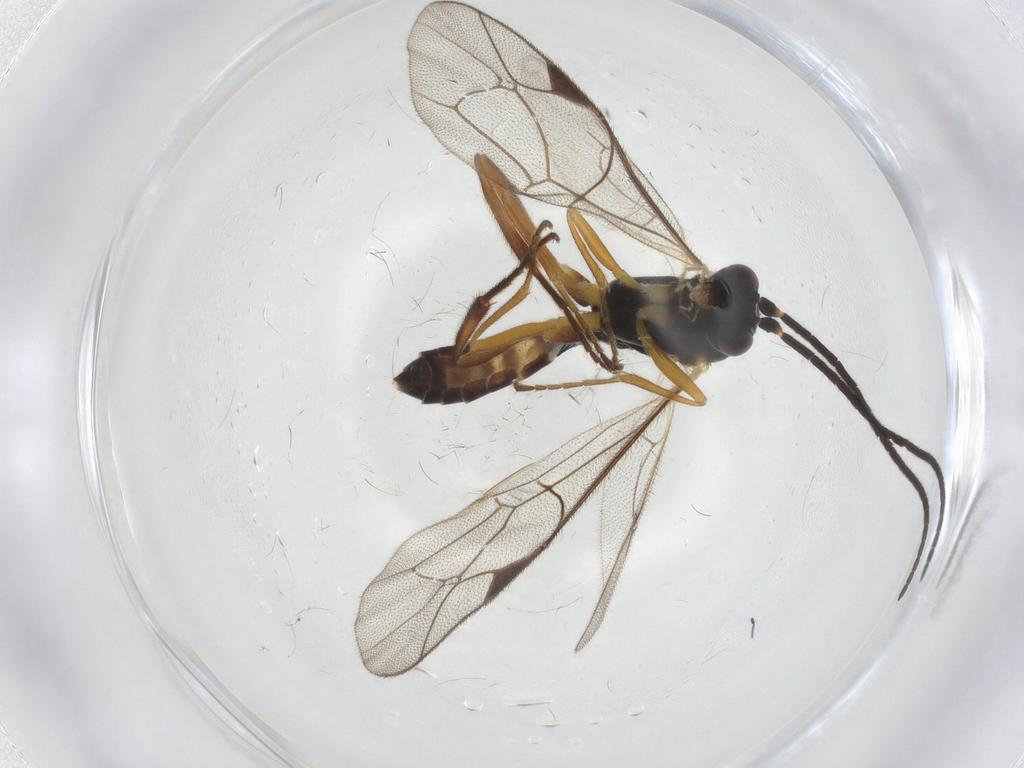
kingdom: Animalia
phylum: Arthropoda
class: Insecta
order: Hymenoptera
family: Ichneumonidae
